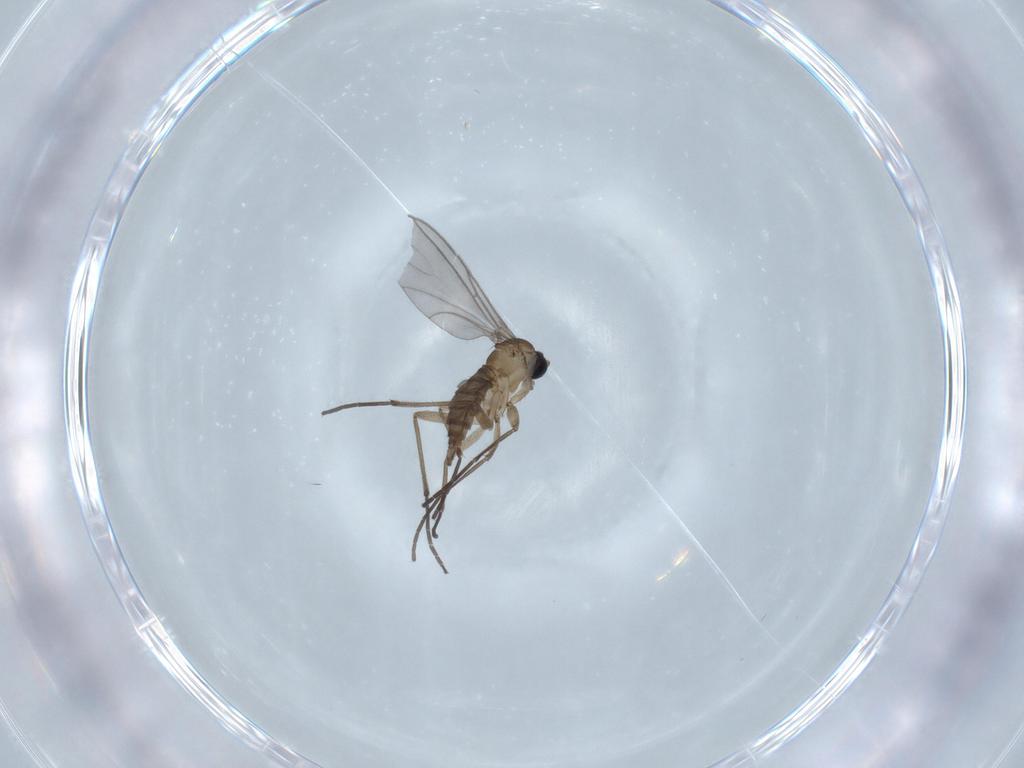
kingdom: Animalia
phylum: Arthropoda
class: Insecta
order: Diptera
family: Sciaridae
